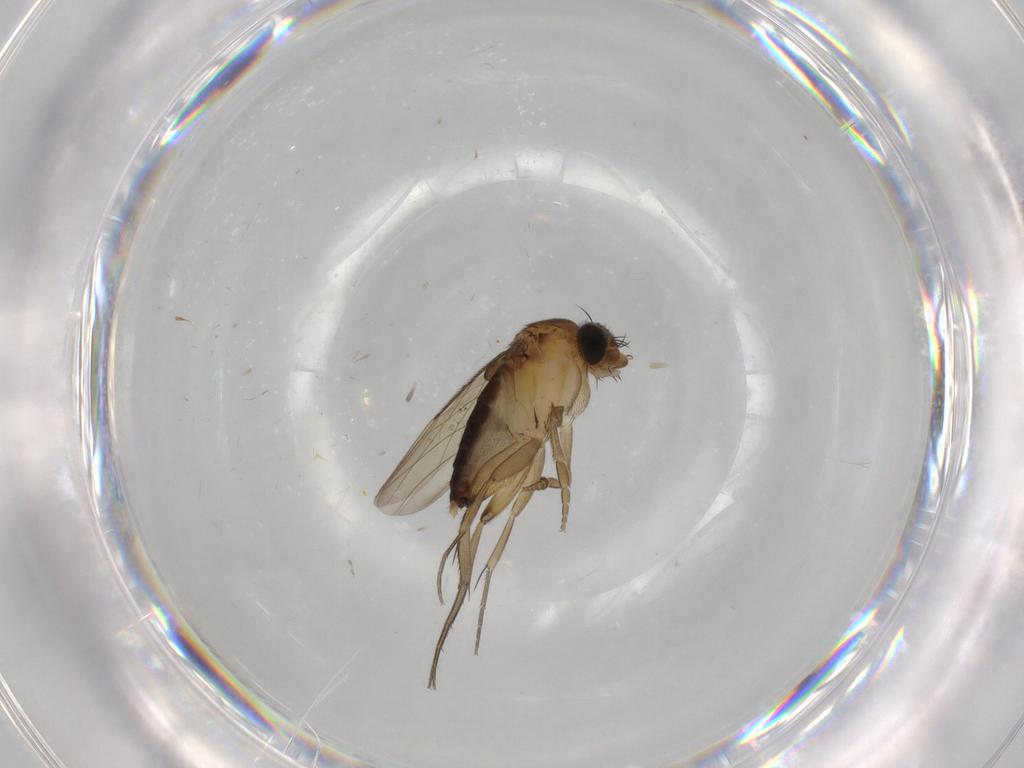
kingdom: Animalia
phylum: Arthropoda
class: Insecta
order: Diptera
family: Phoridae
